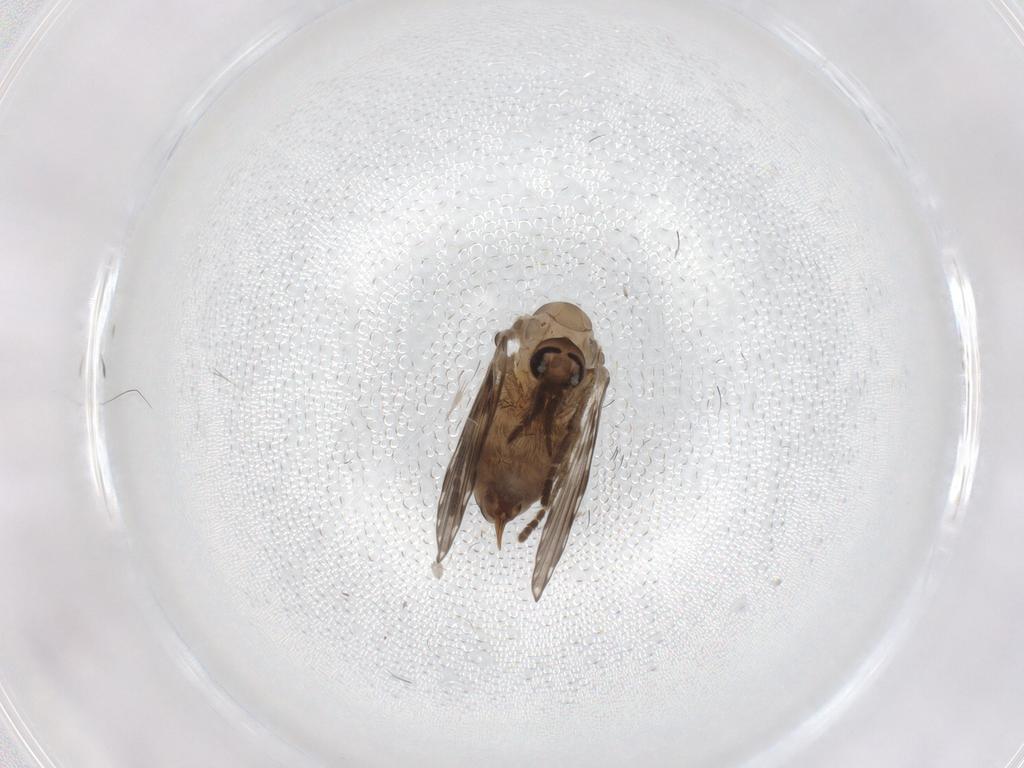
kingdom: Animalia
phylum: Arthropoda
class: Insecta
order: Diptera
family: Psychodidae
